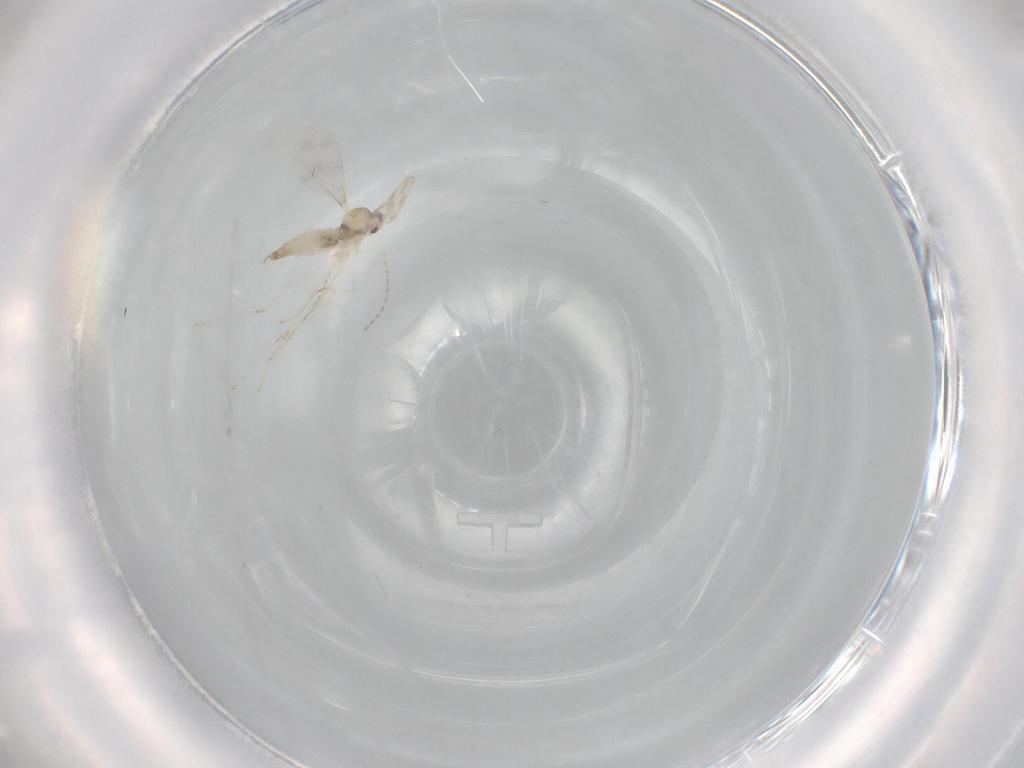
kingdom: Animalia
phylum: Arthropoda
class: Insecta
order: Diptera
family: Cecidomyiidae
